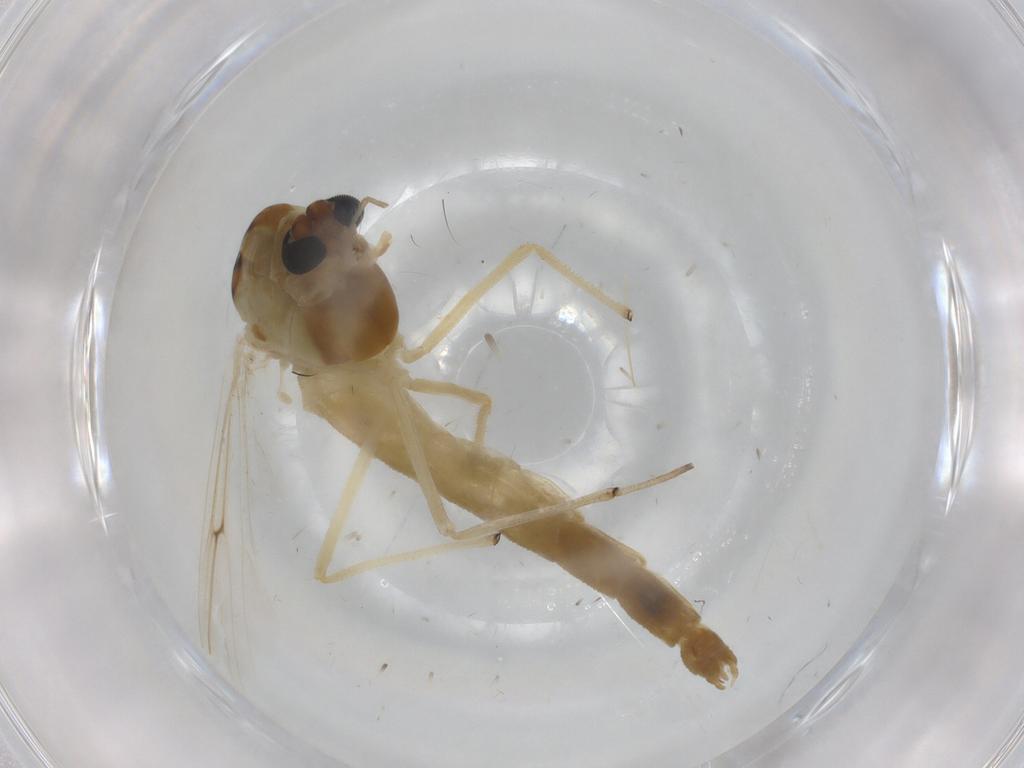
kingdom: Animalia
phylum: Arthropoda
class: Insecta
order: Diptera
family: Chironomidae
